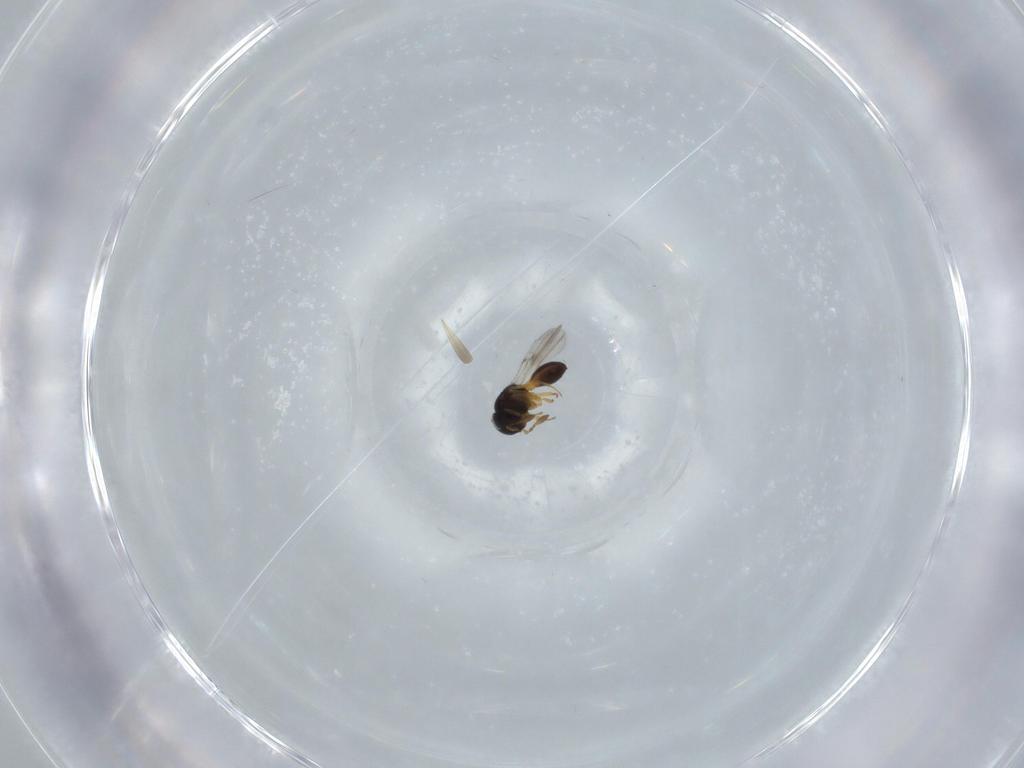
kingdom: Animalia
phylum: Arthropoda
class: Insecta
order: Hymenoptera
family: Scelionidae
